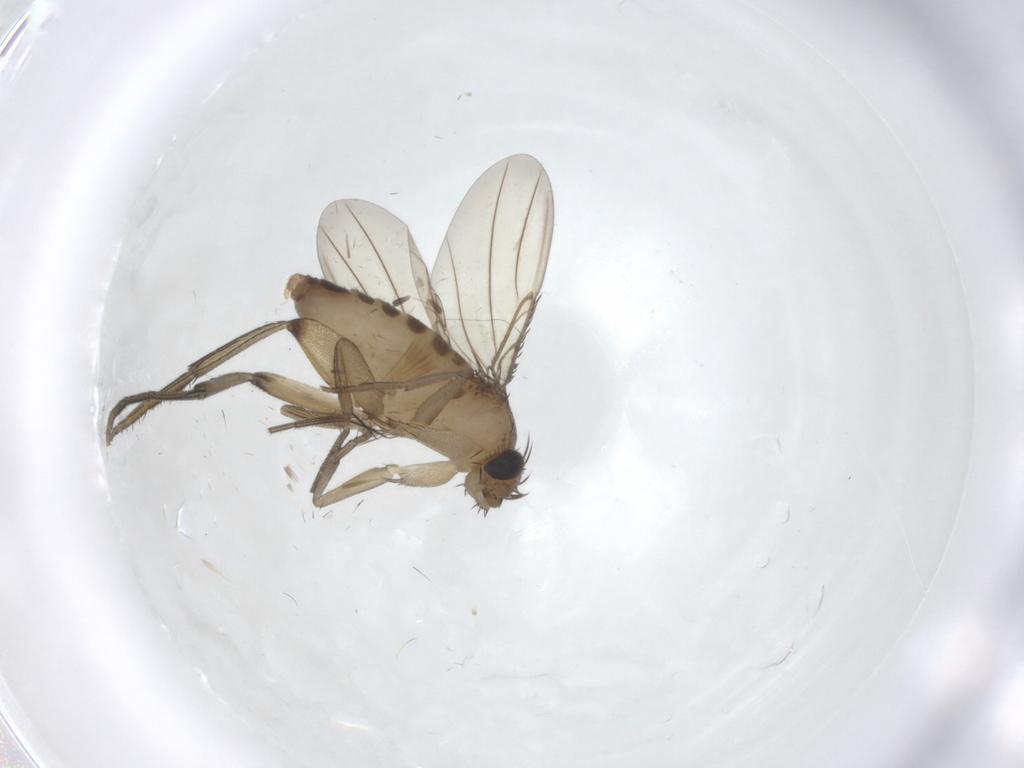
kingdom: Animalia
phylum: Arthropoda
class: Insecta
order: Diptera
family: Phoridae
